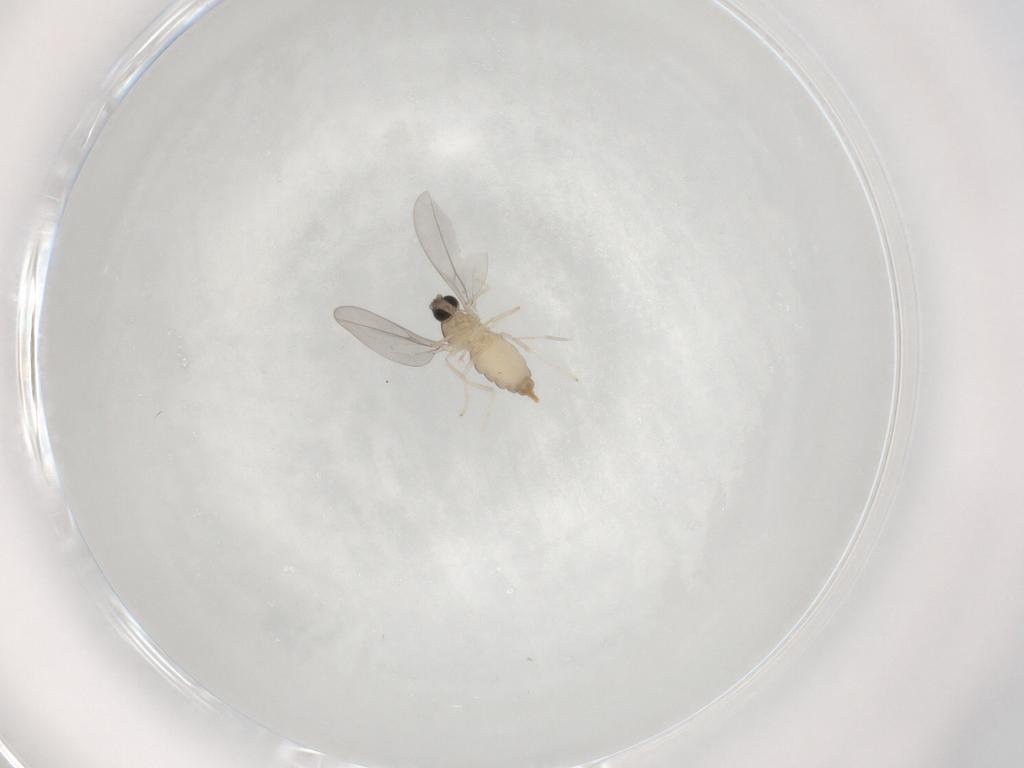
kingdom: Animalia
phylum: Arthropoda
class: Insecta
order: Diptera
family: Cecidomyiidae
